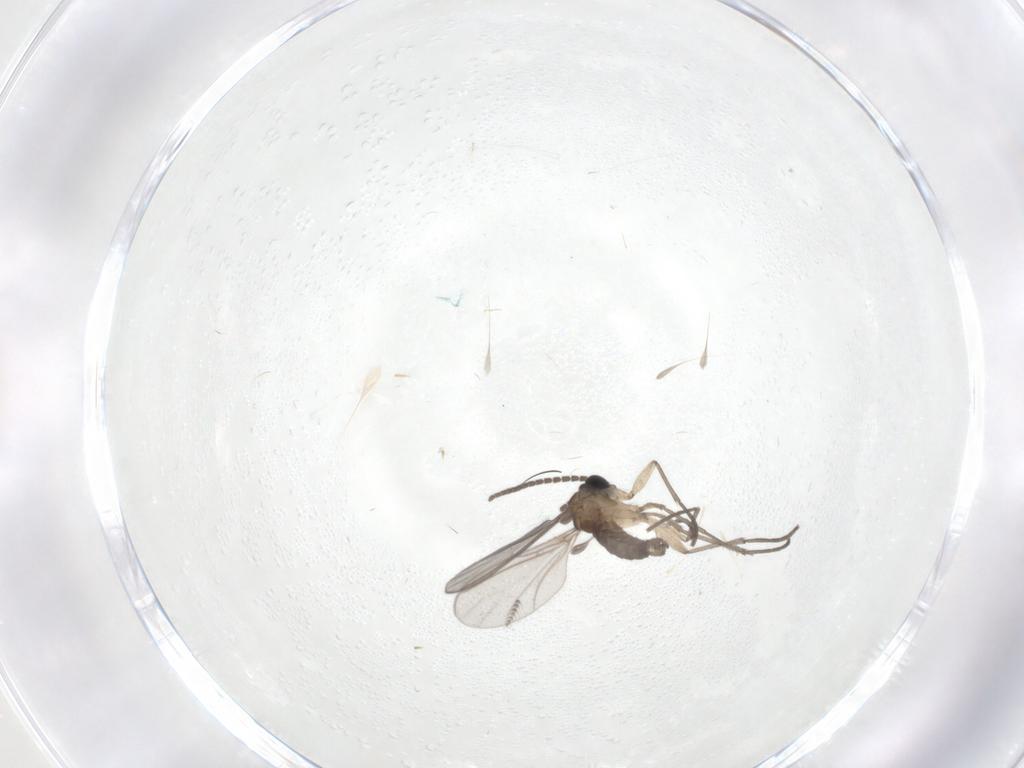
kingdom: Animalia
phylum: Arthropoda
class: Insecta
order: Diptera
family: Sciaridae
